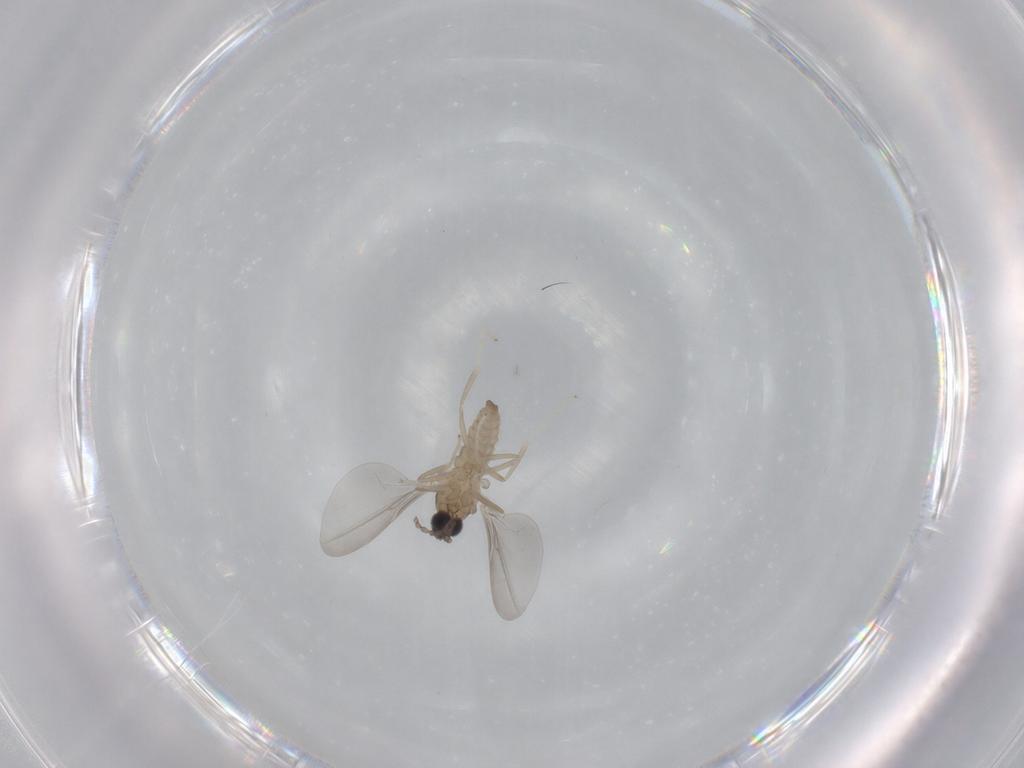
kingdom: Animalia
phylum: Arthropoda
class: Insecta
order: Diptera
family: Cecidomyiidae
